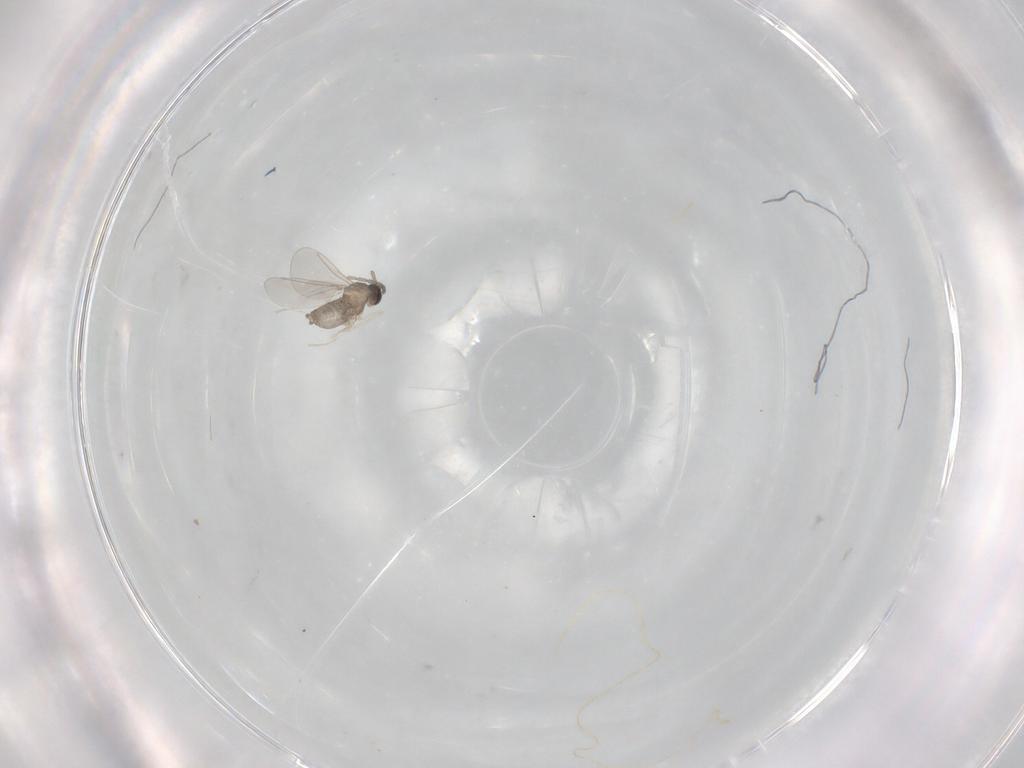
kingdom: Animalia
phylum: Arthropoda
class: Insecta
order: Diptera
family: Cecidomyiidae
